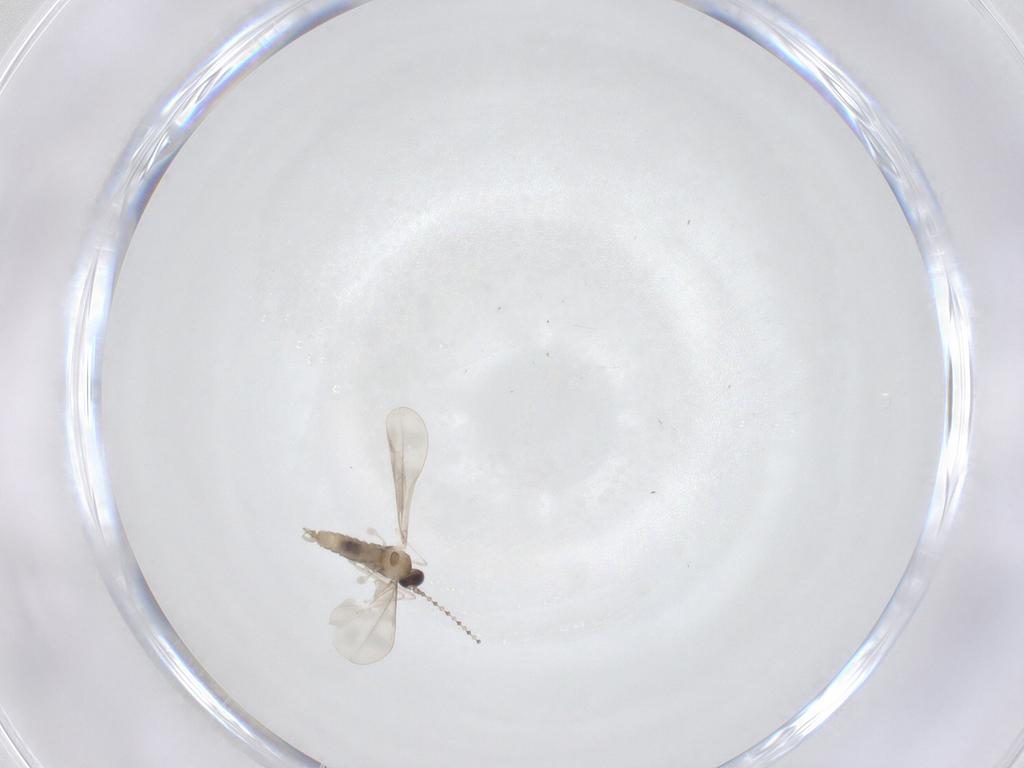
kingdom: Animalia
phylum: Arthropoda
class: Insecta
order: Diptera
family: Cecidomyiidae
